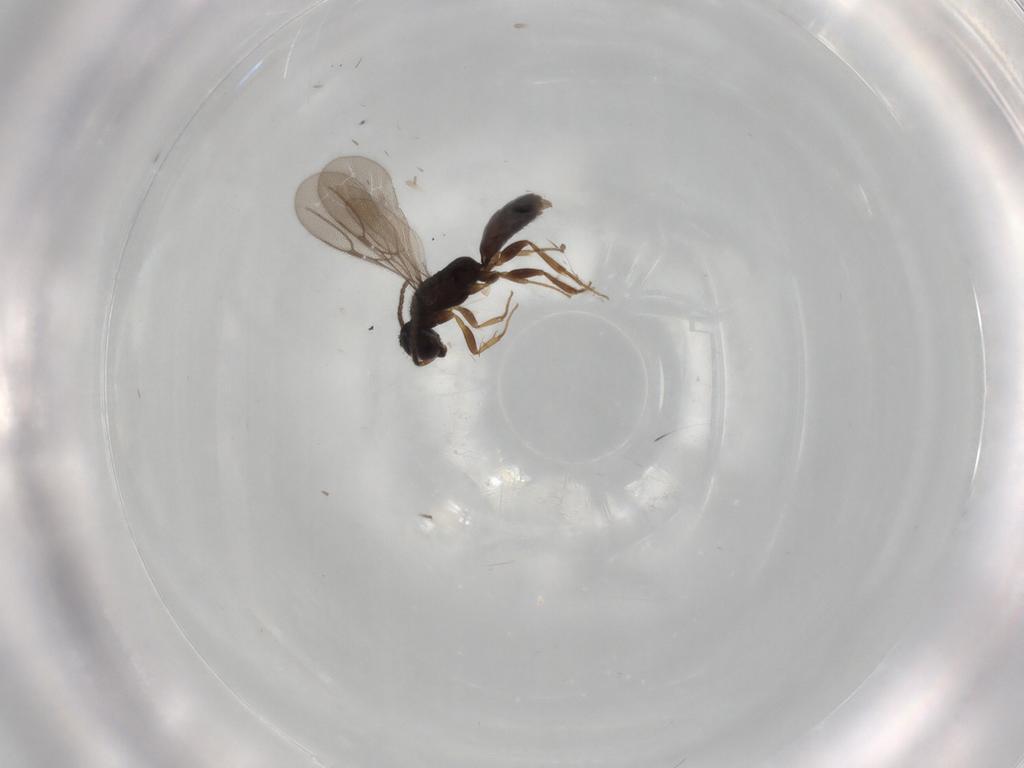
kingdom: Animalia
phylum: Arthropoda
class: Insecta
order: Hymenoptera
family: Bethylidae
